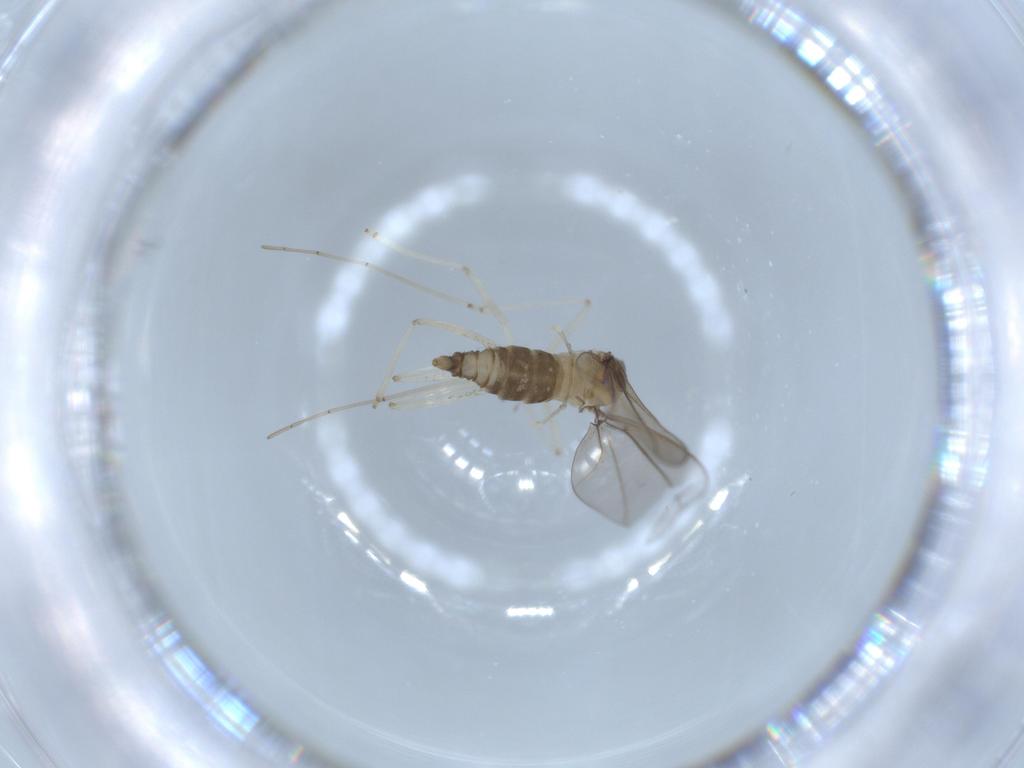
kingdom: Animalia
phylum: Arthropoda
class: Insecta
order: Diptera
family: Cecidomyiidae
